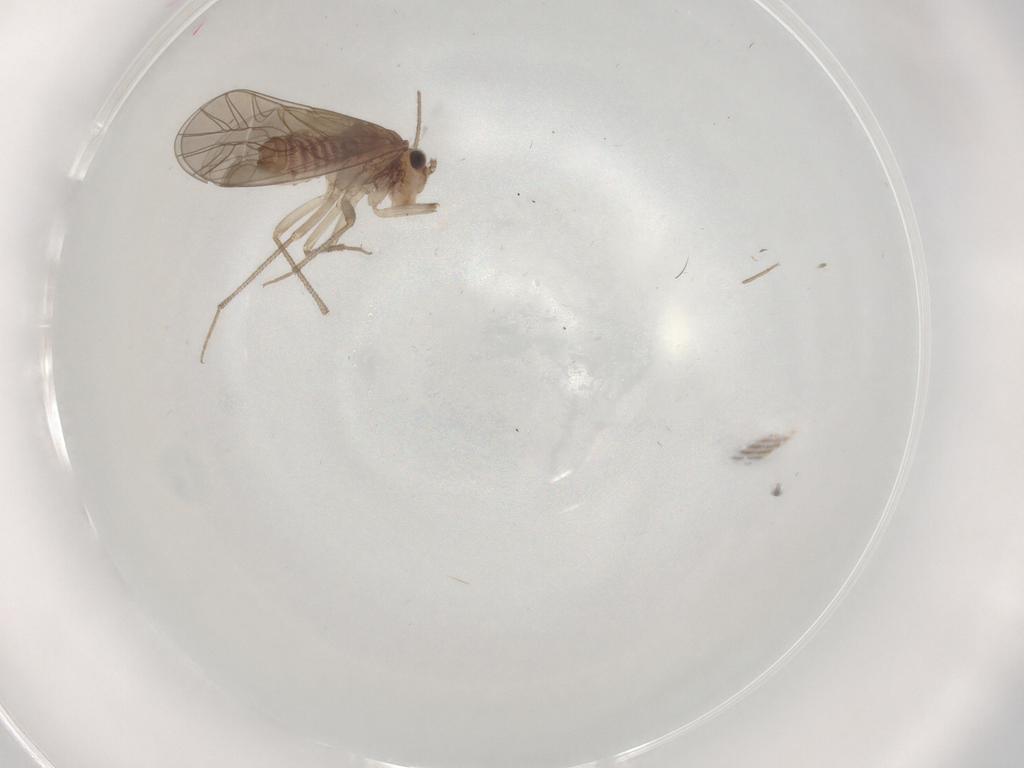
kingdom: Animalia
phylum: Arthropoda
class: Insecta
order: Psocodea
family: Caeciliusidae
